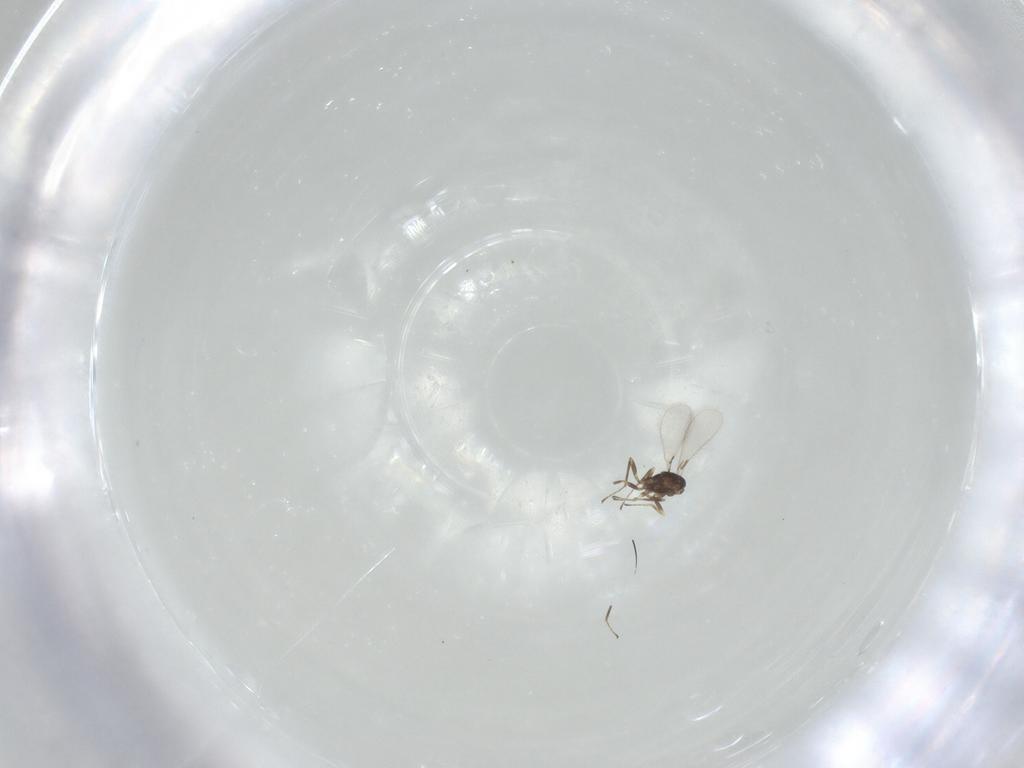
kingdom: Animalia
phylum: Arthropoda
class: Insecta
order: Hymenoptera
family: Mymaridae
